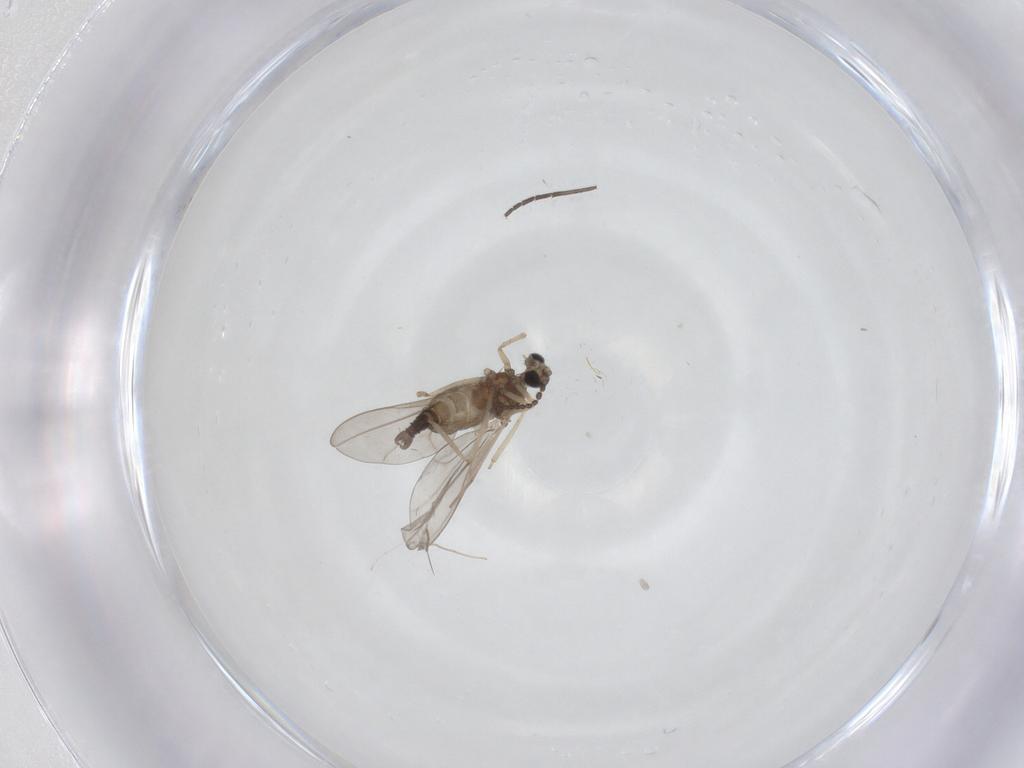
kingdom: Animalia
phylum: Arthropoda
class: Insecta
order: Diptera
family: Cecidomyiidae
